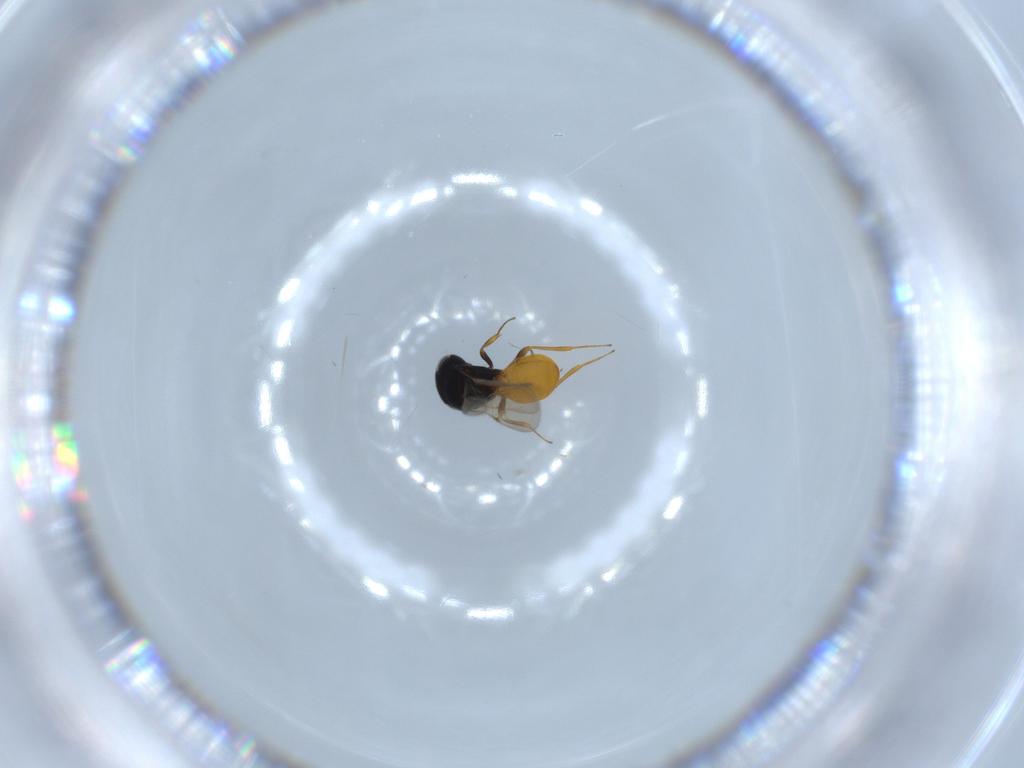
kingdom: Animalia
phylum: Arthropoda
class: Insecta
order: Hymenoptera
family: Scelionidae
